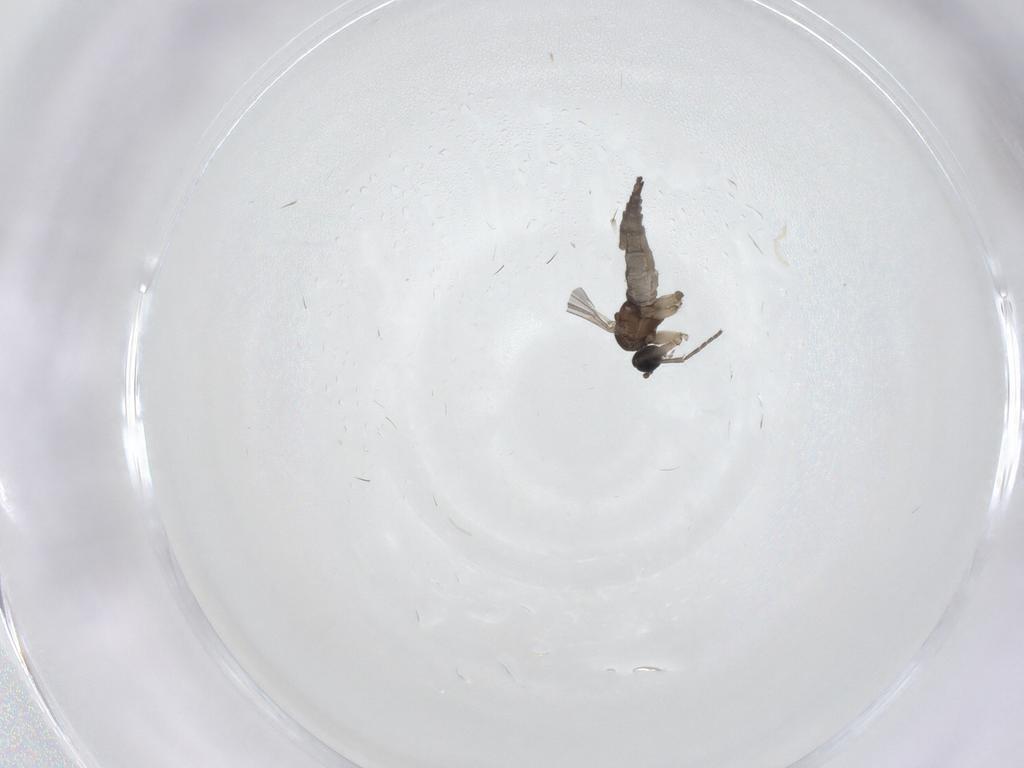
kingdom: Animalia
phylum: Arthropoda
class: Insecta
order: Diptera
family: Sciaridae
